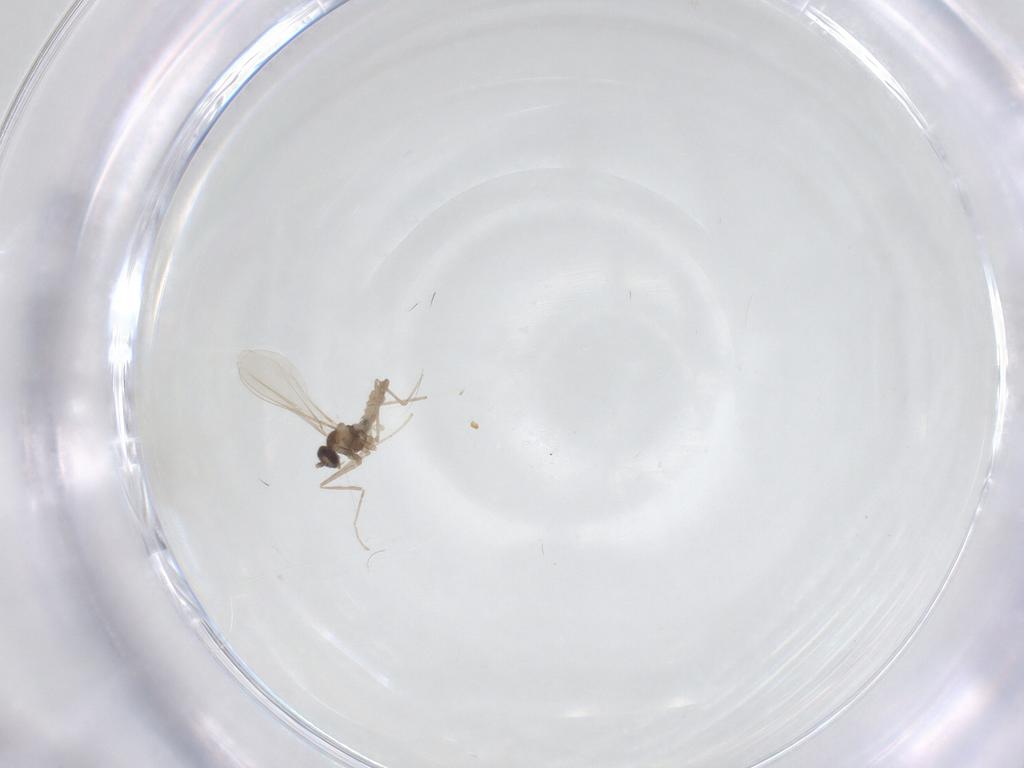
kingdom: Animalia
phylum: Arthropoda
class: Insecta
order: Diptera
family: Cecidomyiidae
